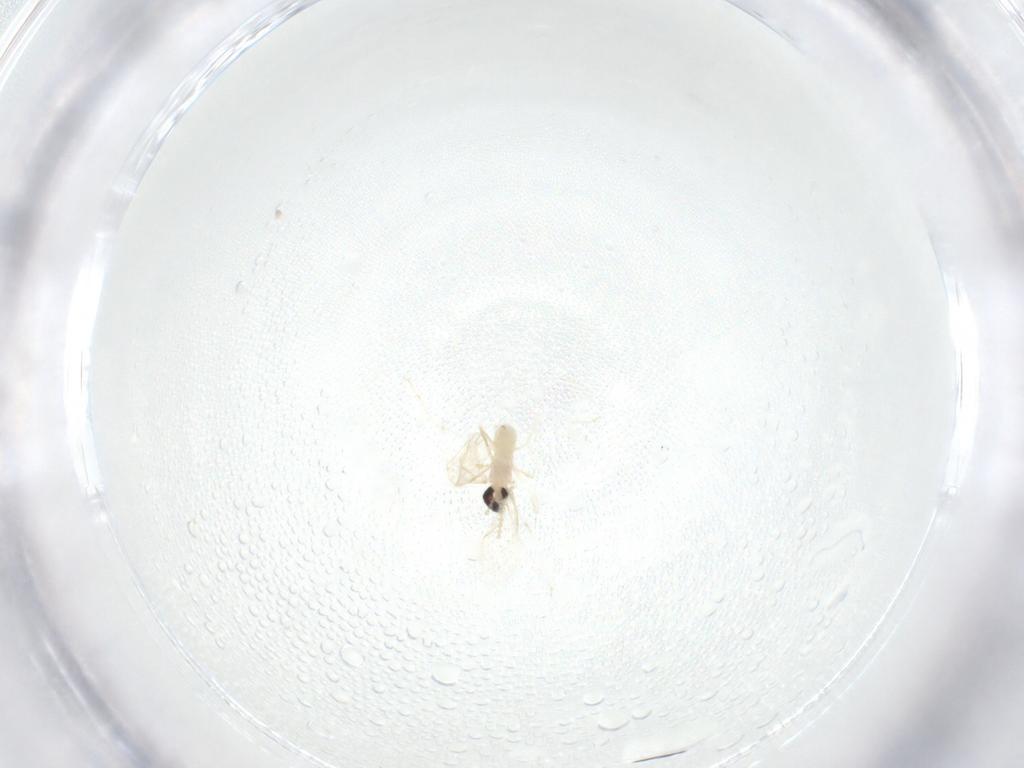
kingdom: Animalia
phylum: Arthropoda
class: Insecta
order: Diptera
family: Cecidomyiidae
